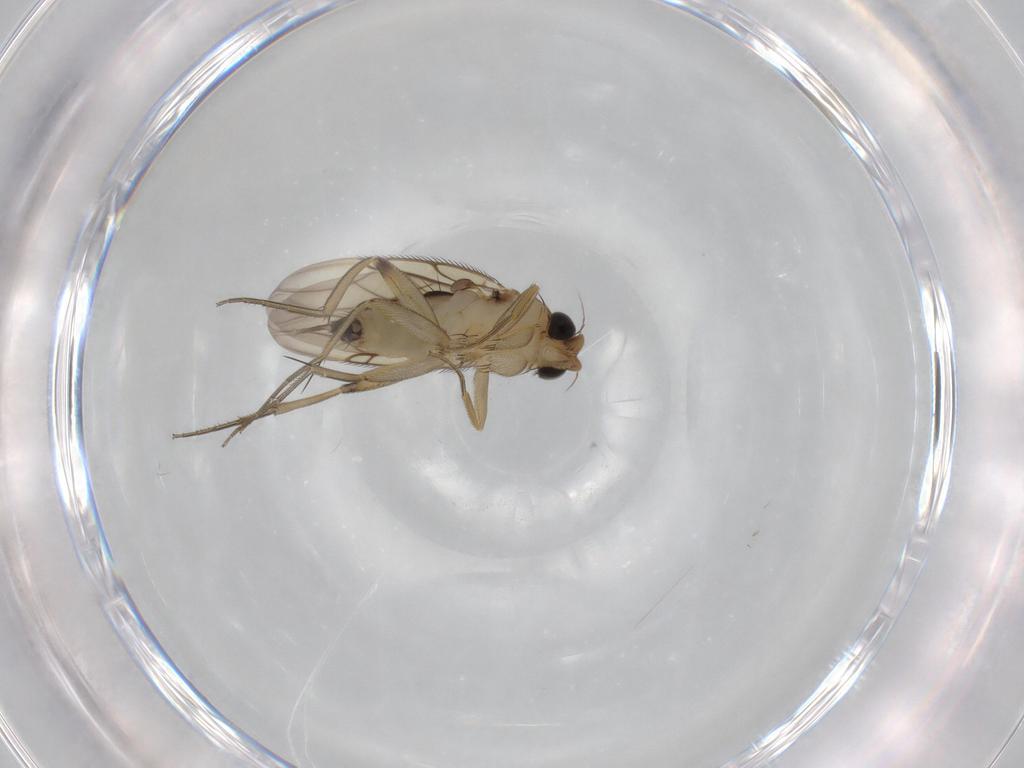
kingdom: Animalia
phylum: Arthropoda
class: Insecta
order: Diptera
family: Phoridae
